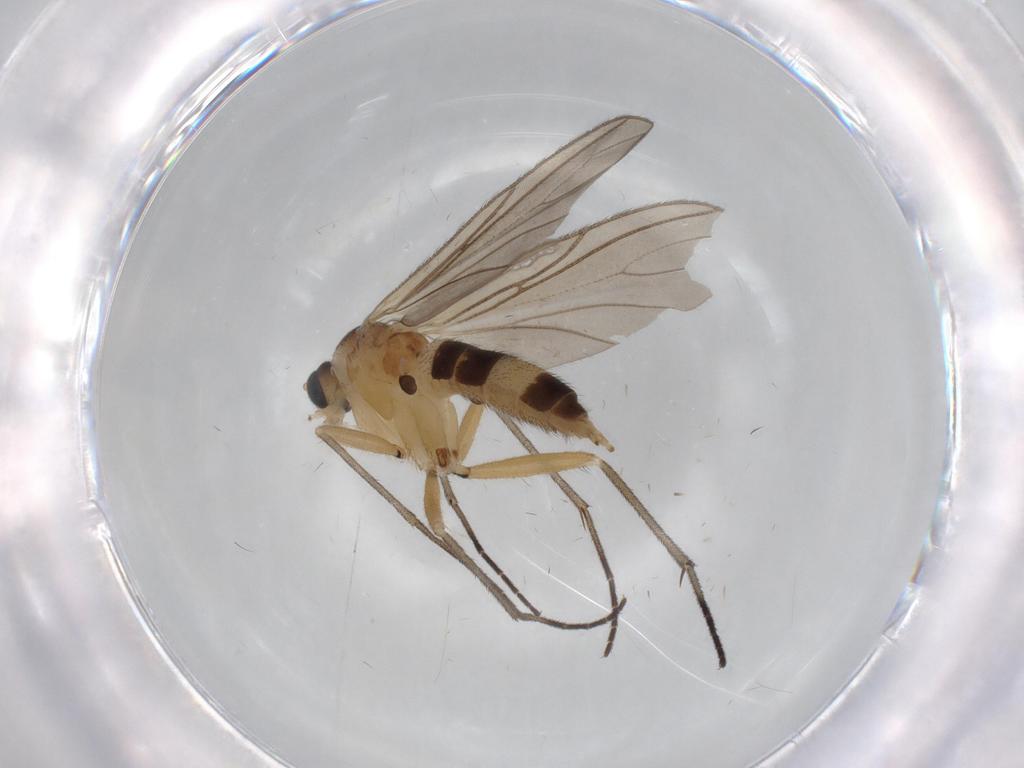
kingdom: Animalia
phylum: Arthropoda
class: Insecta
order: Diptera
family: Sciaridae
